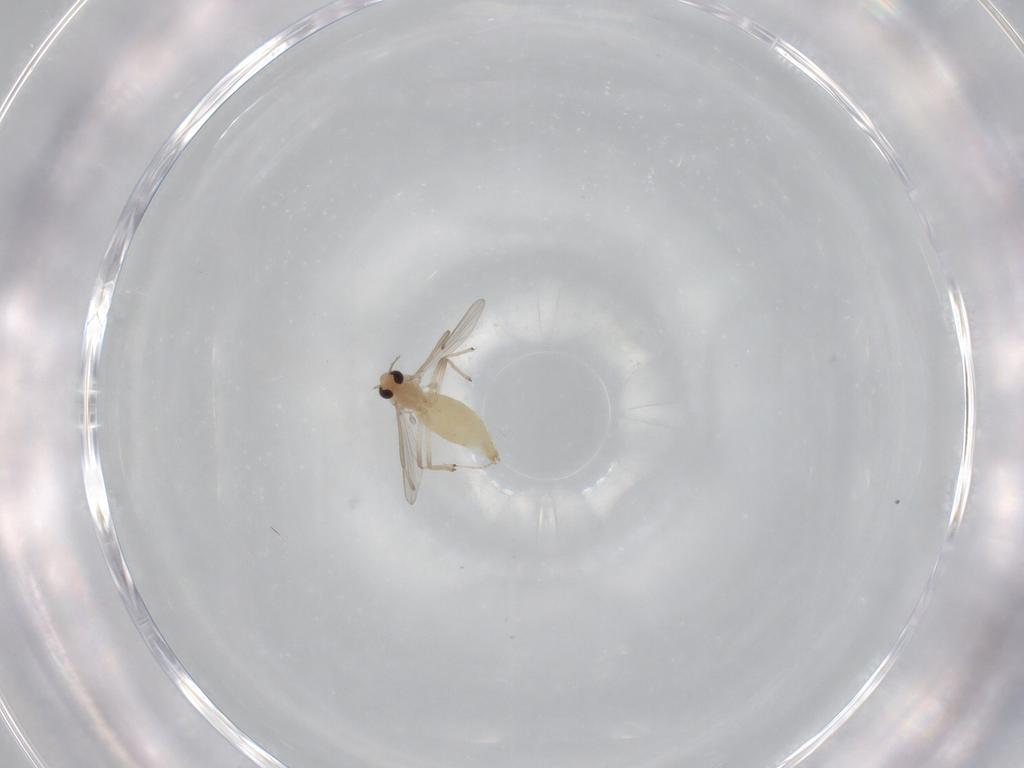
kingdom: Animalia
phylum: Arthropoda
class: Insecta
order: Diptera
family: Chironomidae
